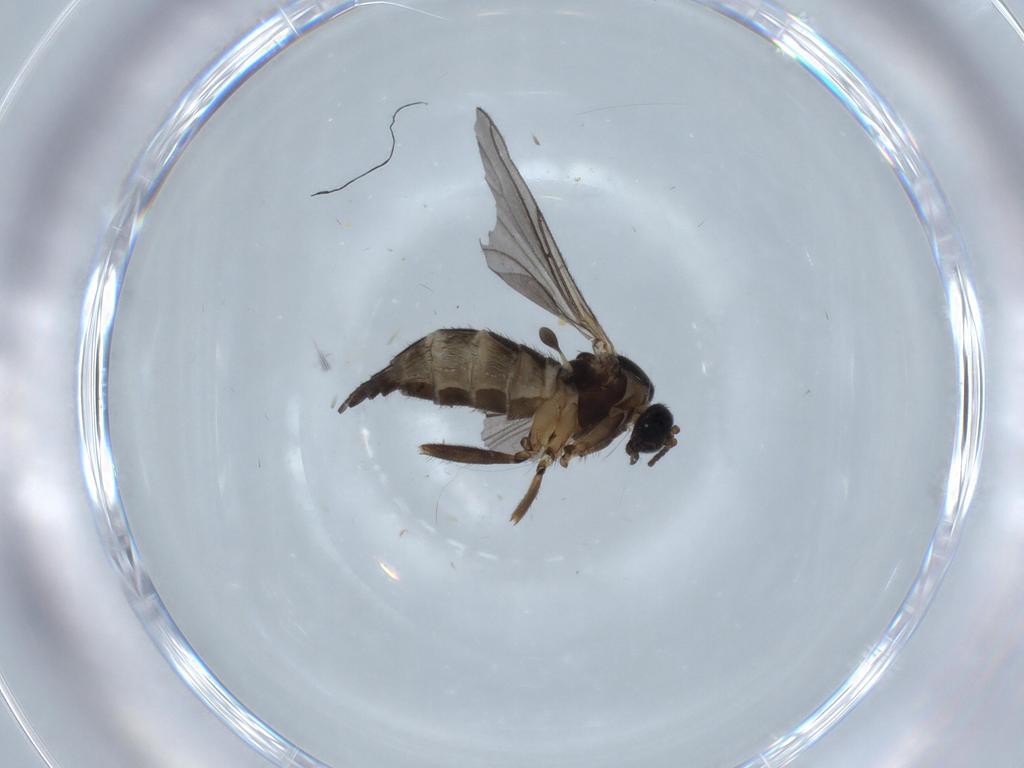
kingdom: Animalia
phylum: Arthropoda
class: Insecta
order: Diptera
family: Sciaridae
